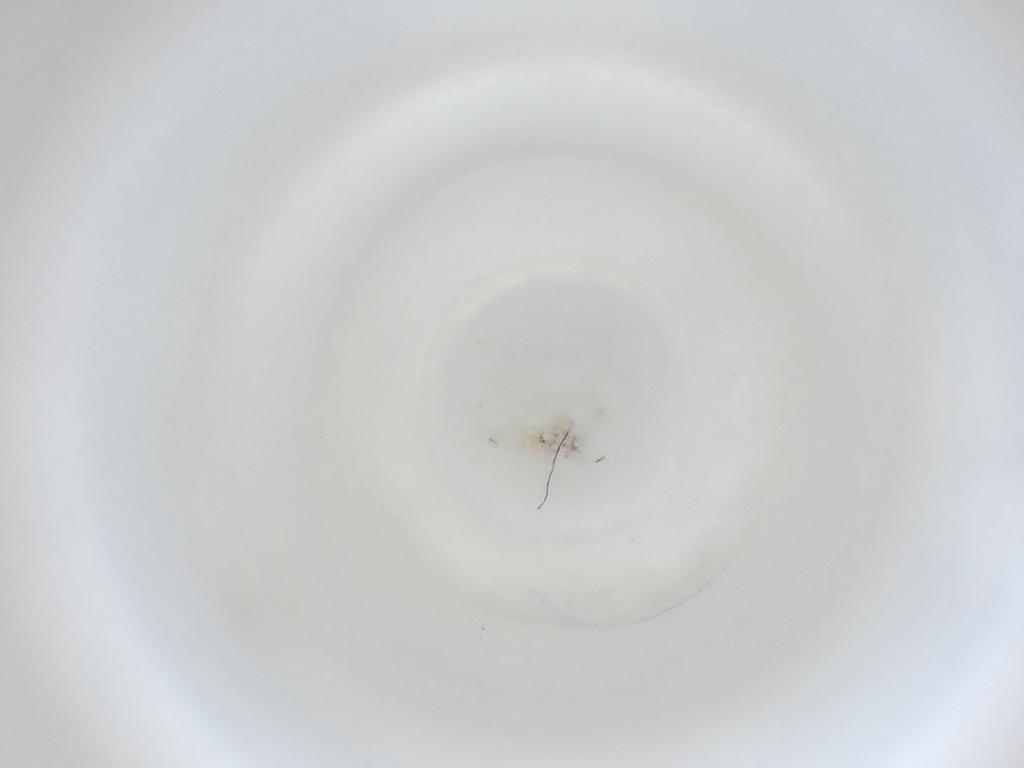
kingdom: Animalia
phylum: Arthropoda
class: Insecta
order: Diptera
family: Cecidomyiidae
